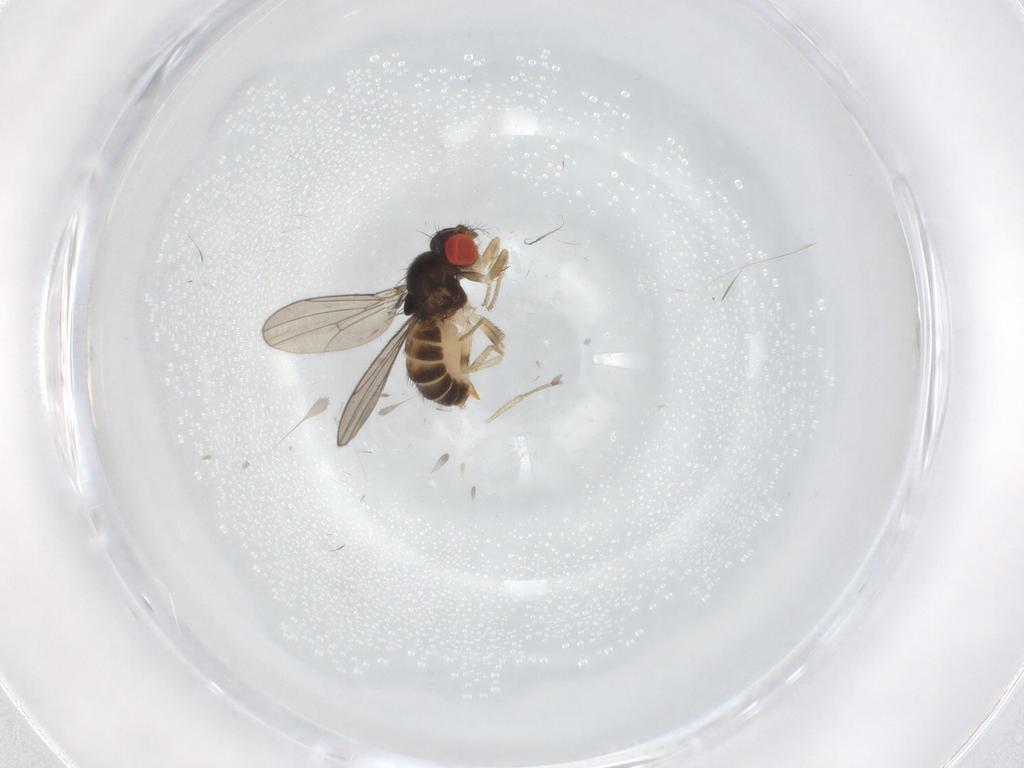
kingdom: Animalia
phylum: Arthropoda
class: Insecta
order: Diptera
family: Drosophilidae
